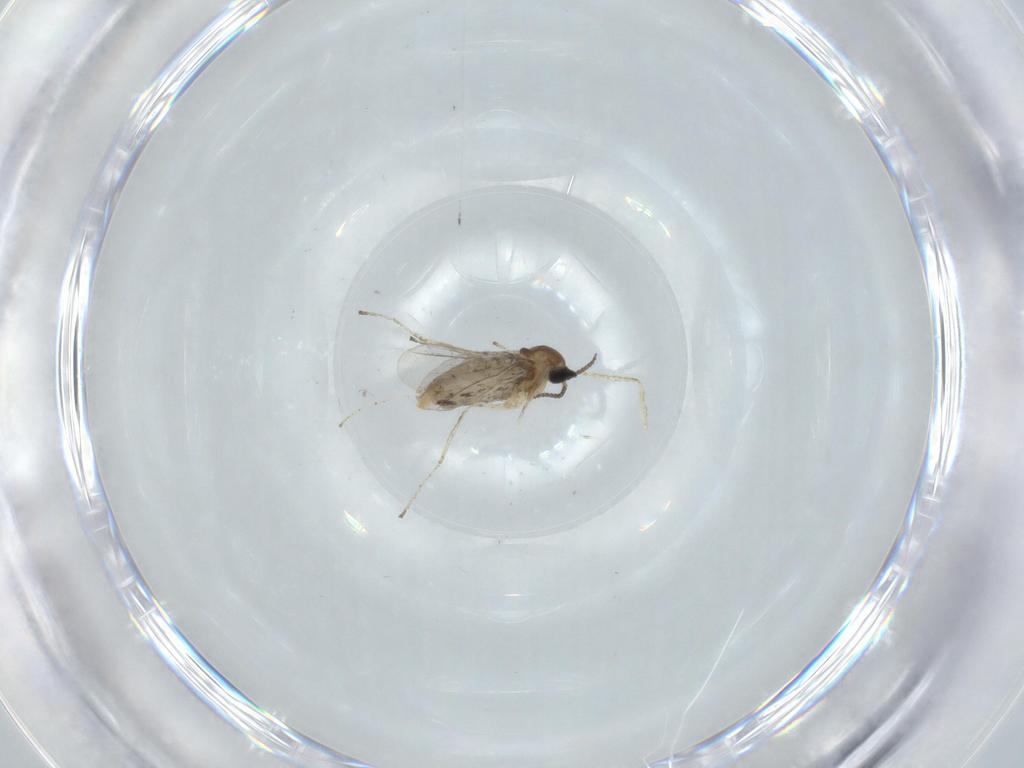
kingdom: Animalia
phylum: Arthropoda
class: Insecta
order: Diptera
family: Cecidomyiidae
